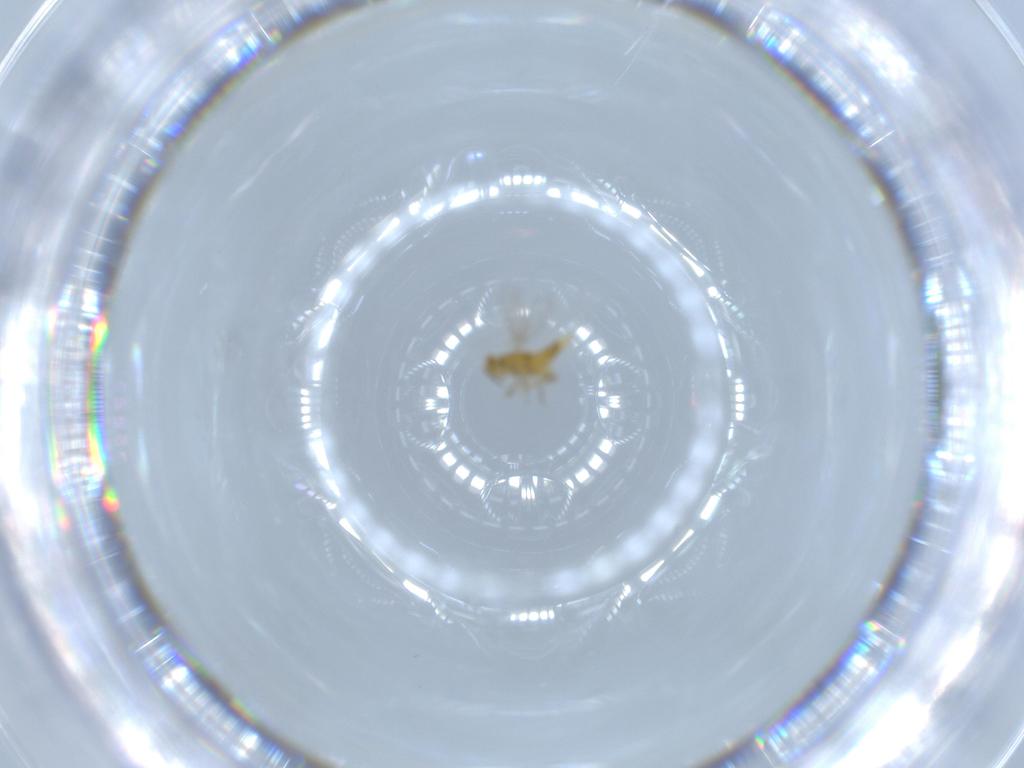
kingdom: Animalia
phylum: Arthropoda
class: Insecta
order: Hymenoptera
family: Aphelinidae
